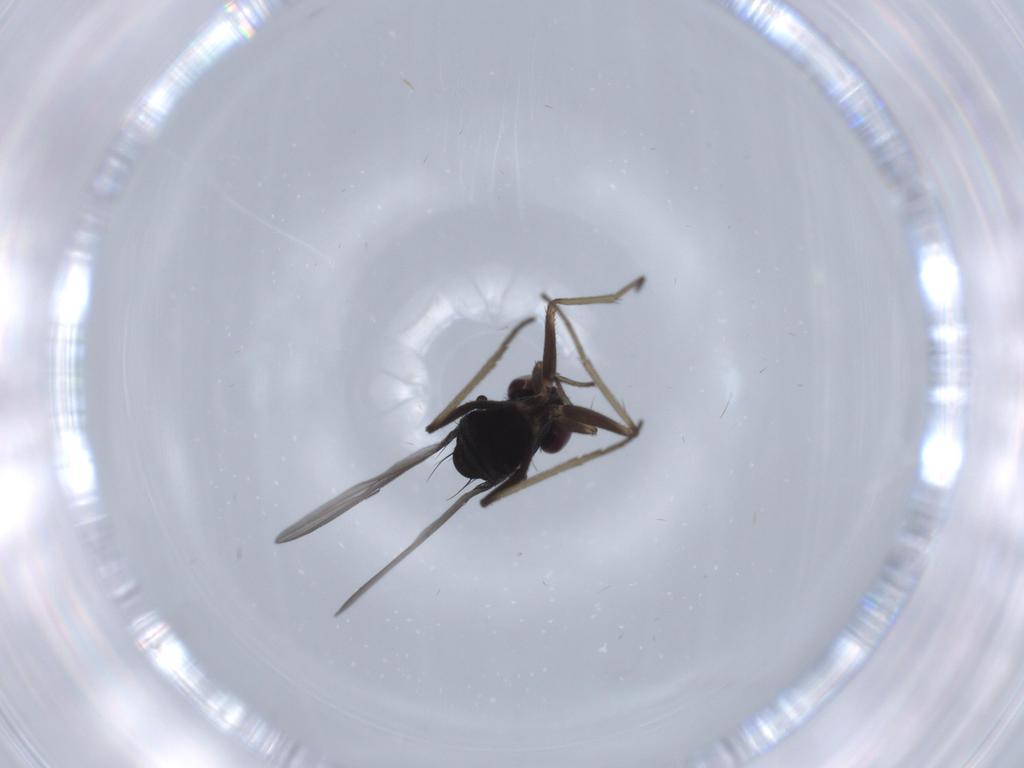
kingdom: Animalia
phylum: Arthropoda
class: Insecta
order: Diptera
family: Dolichopodidae
